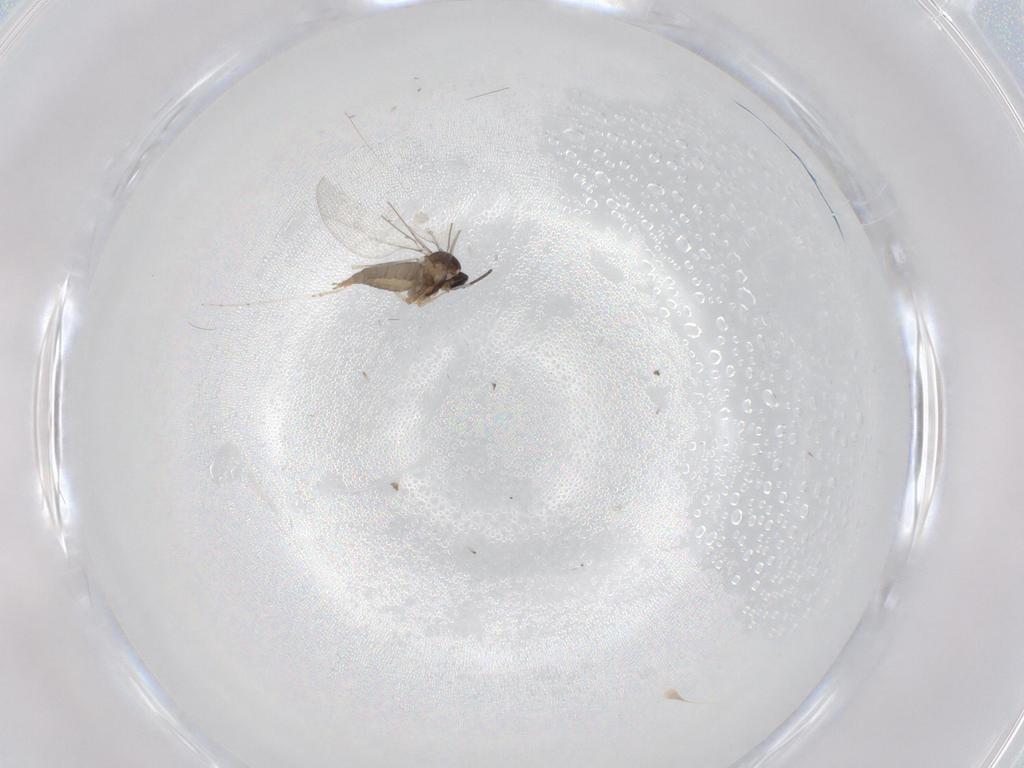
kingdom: Animalia
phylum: Arthropoda
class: Insecta
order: Diptera
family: Cecidomyiidae
